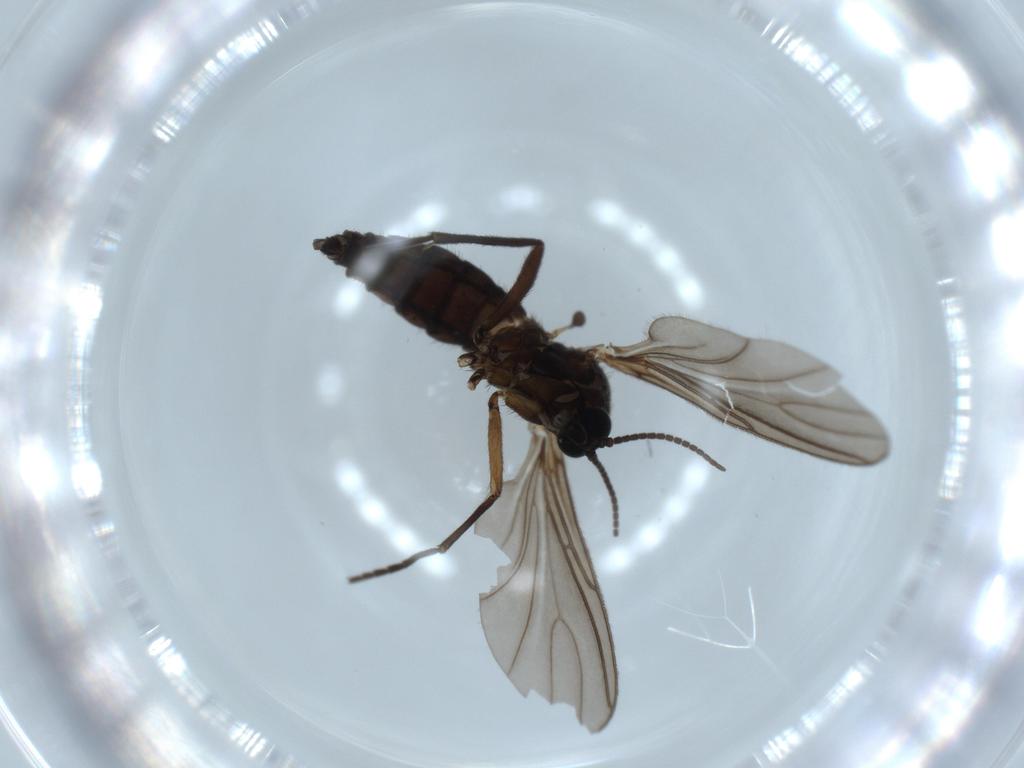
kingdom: Animalia
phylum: Arthropoda
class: Insecta
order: Diptera
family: Sciaridae
